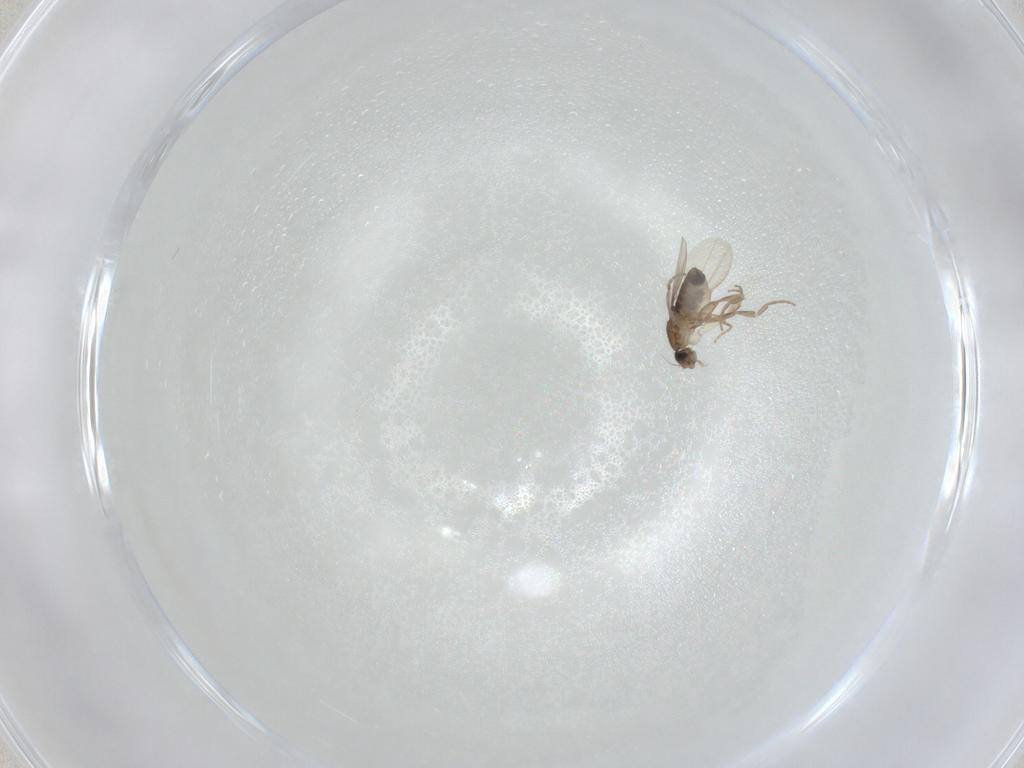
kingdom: Animalia
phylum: Arthropoda
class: Insecta
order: Diptera
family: Phoridae
